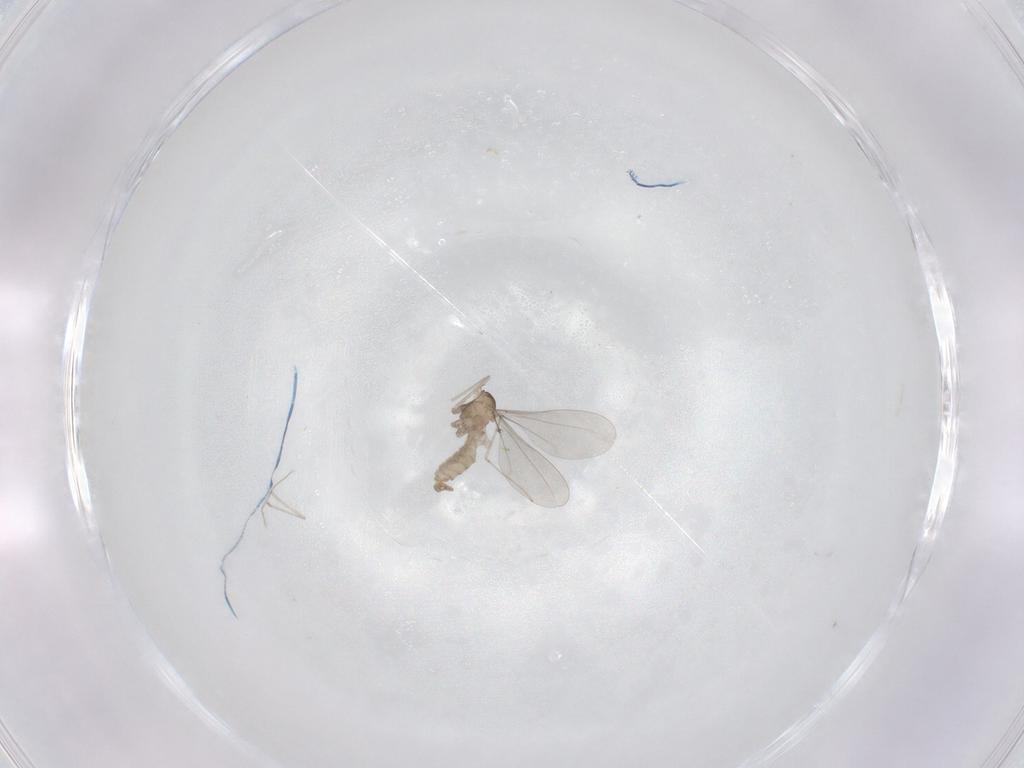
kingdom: Animalia
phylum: Arthropoda
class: Insecta
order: Diptera
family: Cecidomyiidae
